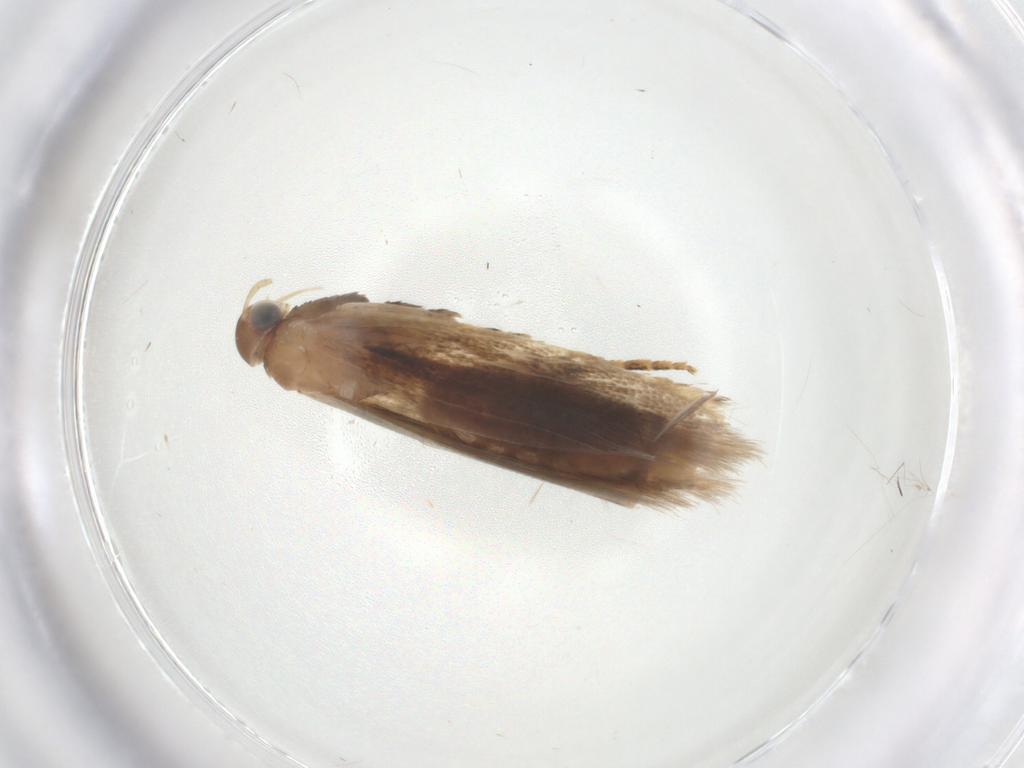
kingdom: Animalia
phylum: Arthropoda
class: Insecta
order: Lepidoptera
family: Gelechiidae
